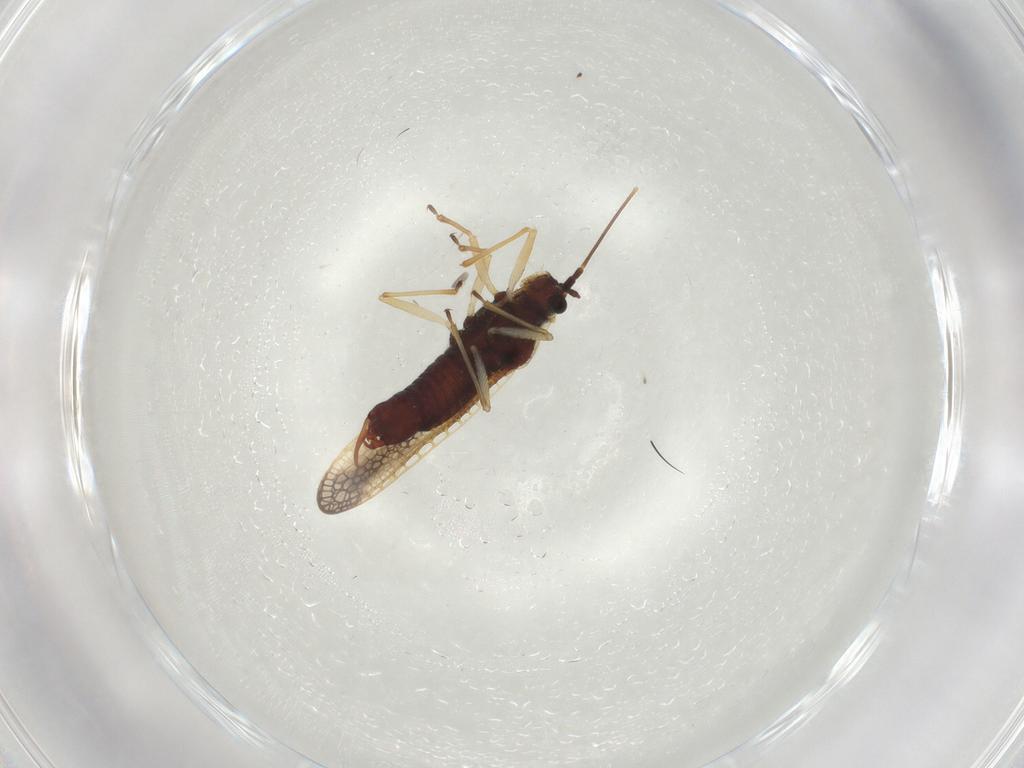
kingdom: Animalia
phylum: Arthropoda
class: Insecta
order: Hemiptera
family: Tingidae
